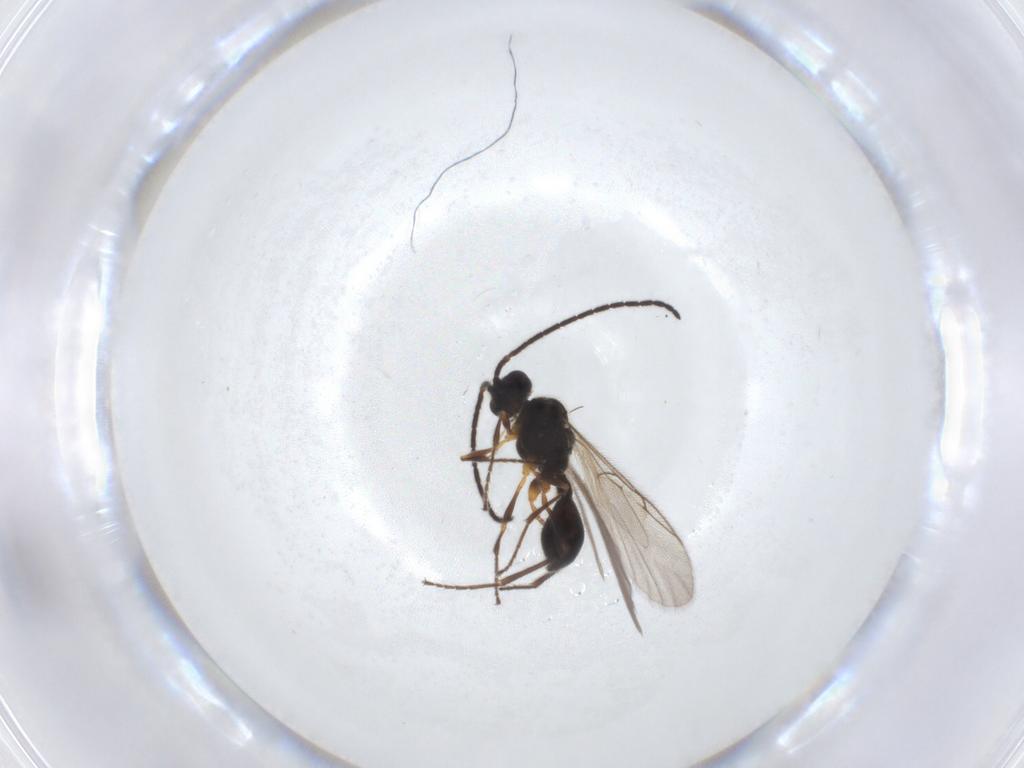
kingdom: Animalia
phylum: Arthropoda
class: Insecta
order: Hymenoptera
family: Diapriidae
